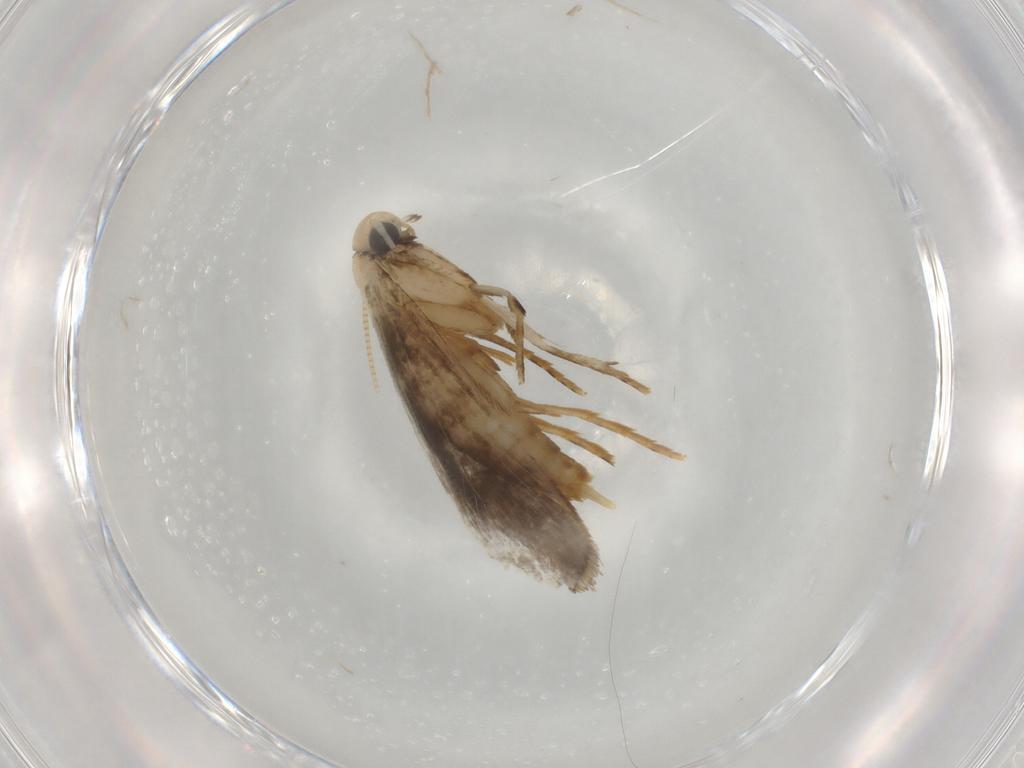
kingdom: Animalia
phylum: Arthropoda
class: Insecta
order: Lepidoptera
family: Tineidae
